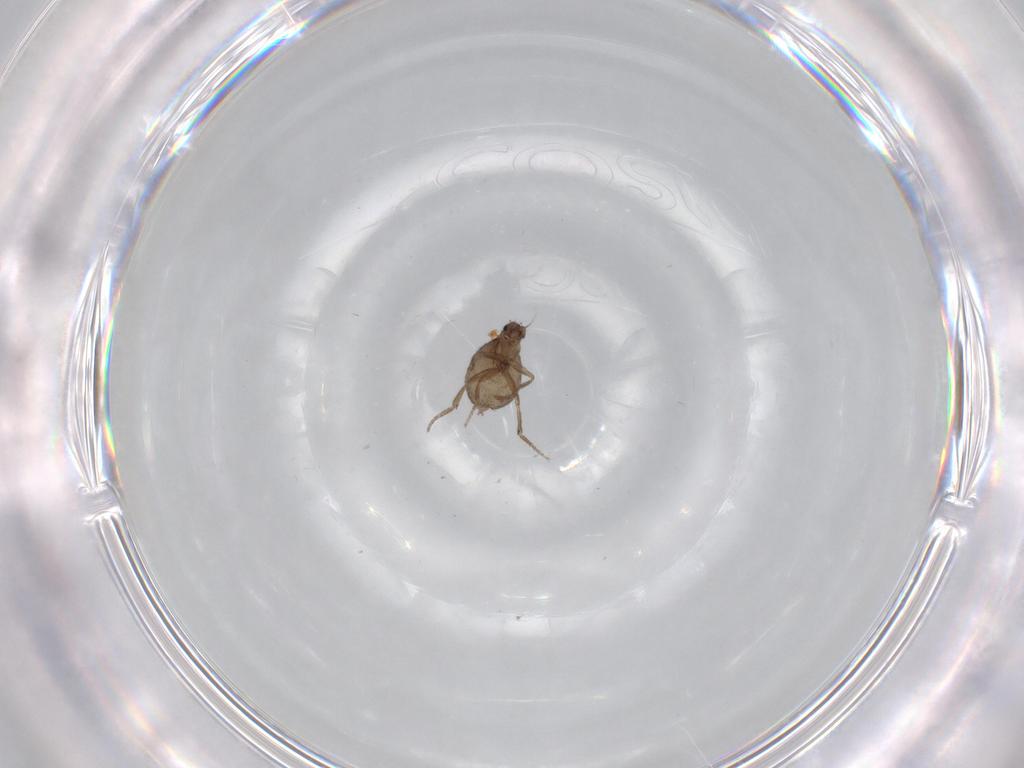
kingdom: Animalia
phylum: Arthropoda
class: Insecta
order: Diptera
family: Phoridae
